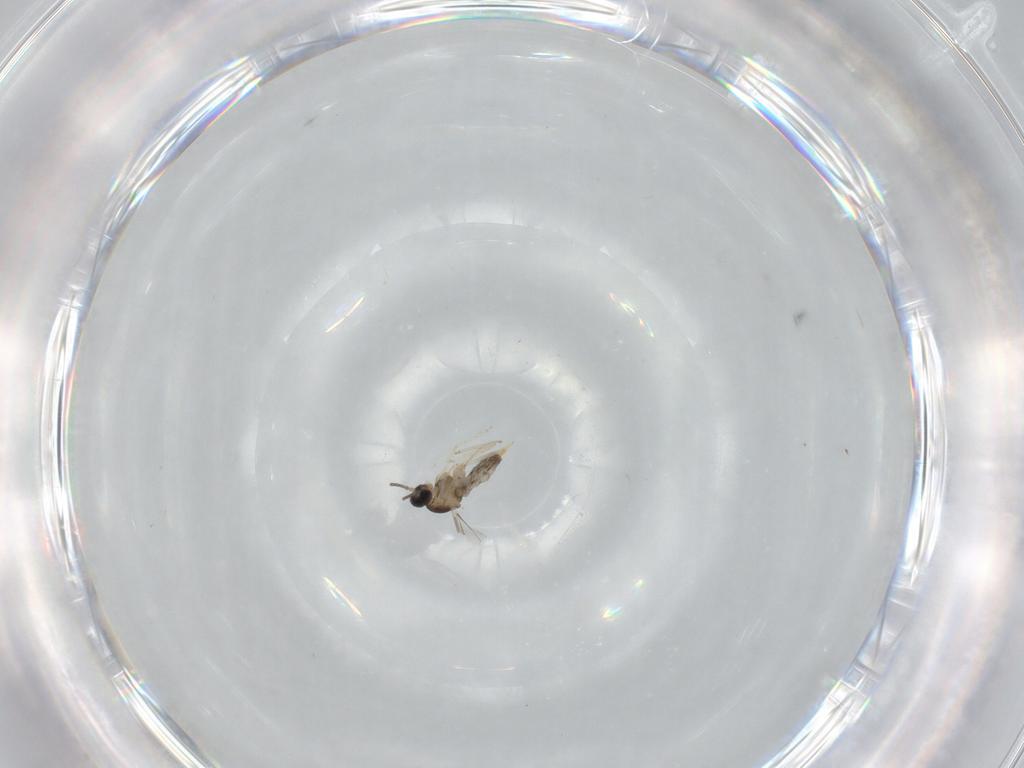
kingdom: Animalia
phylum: Arthropoda
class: Insecta
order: Diptera
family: Cecidomyiidae
